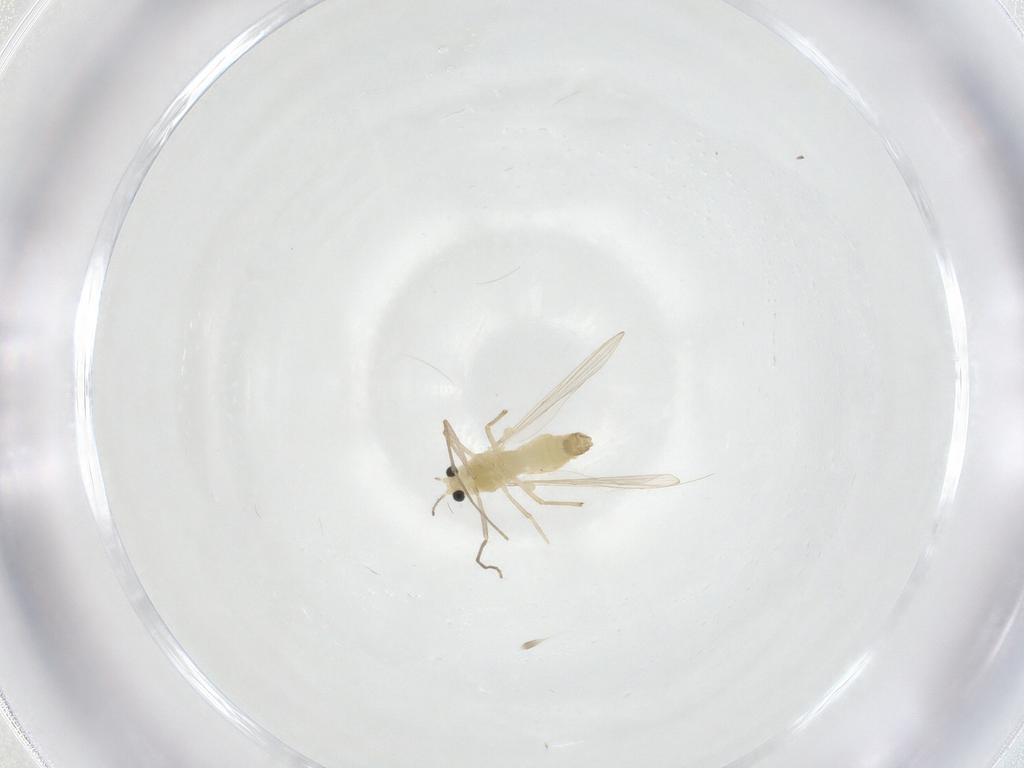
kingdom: Animalia
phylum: Arthropoda
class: Insecta
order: Diptera
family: Chironomidae
